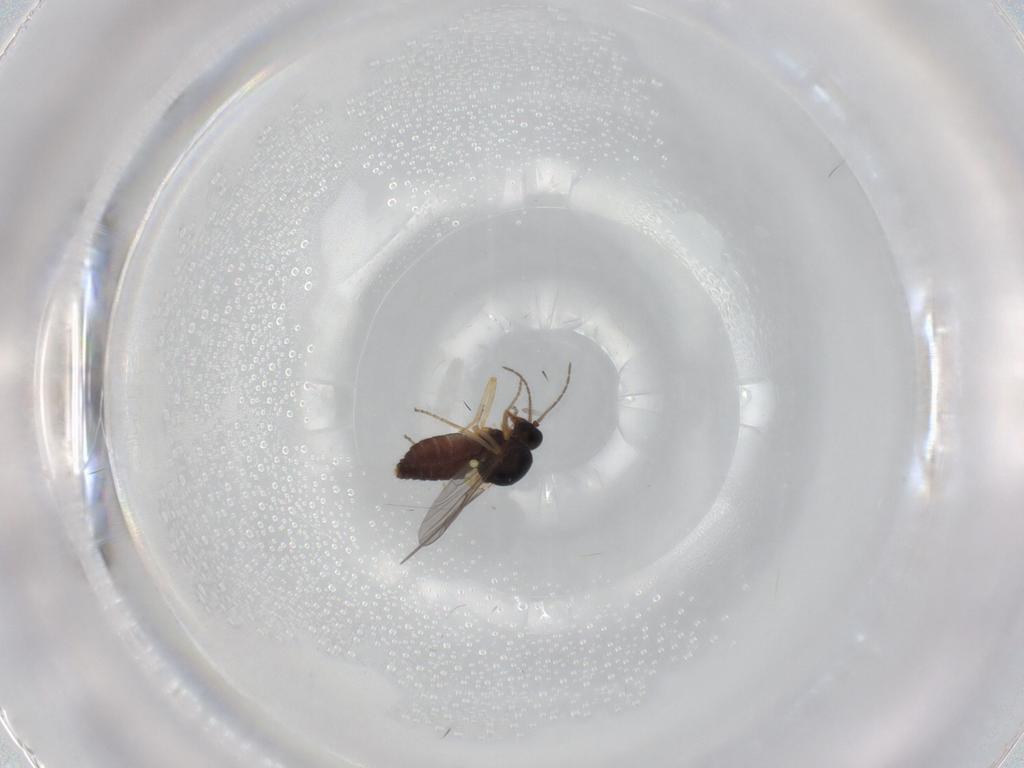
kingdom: Animalia
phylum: Arthropoda
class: Insecta
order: Diptera
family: Ceratopogonidae
